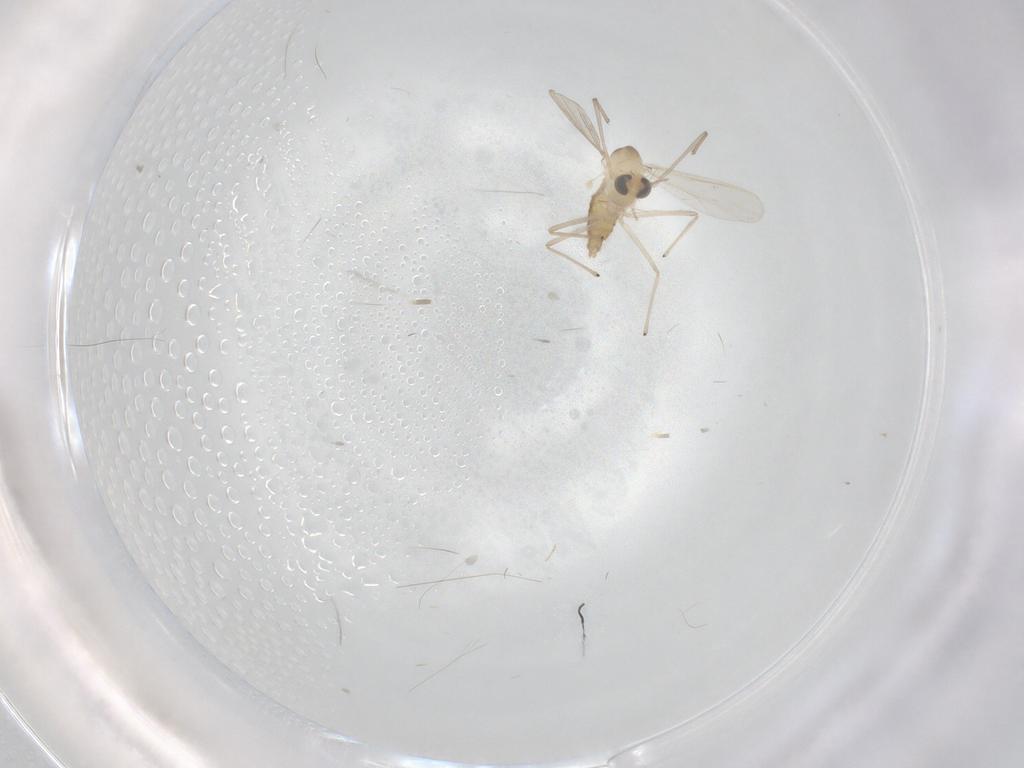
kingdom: Animalia
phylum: Arthropoda
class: Insecta
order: Diptera
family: Chironomidae
